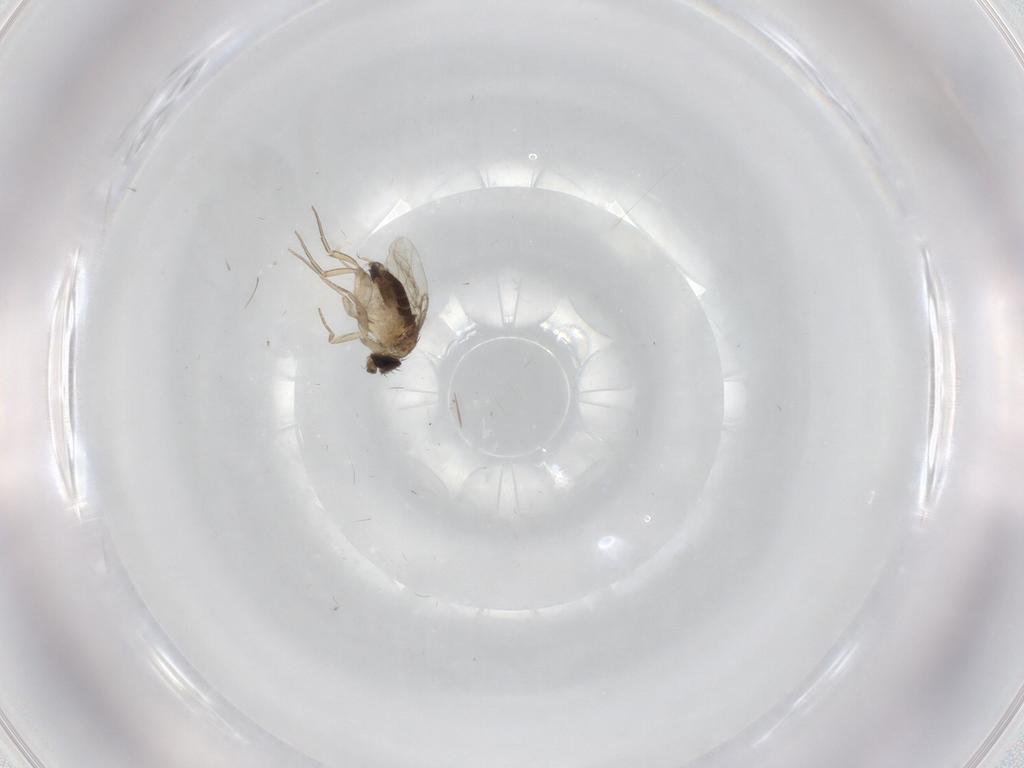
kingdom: Animalia
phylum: Arthropoda
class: Insecta
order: Diptera
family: Phoridae
